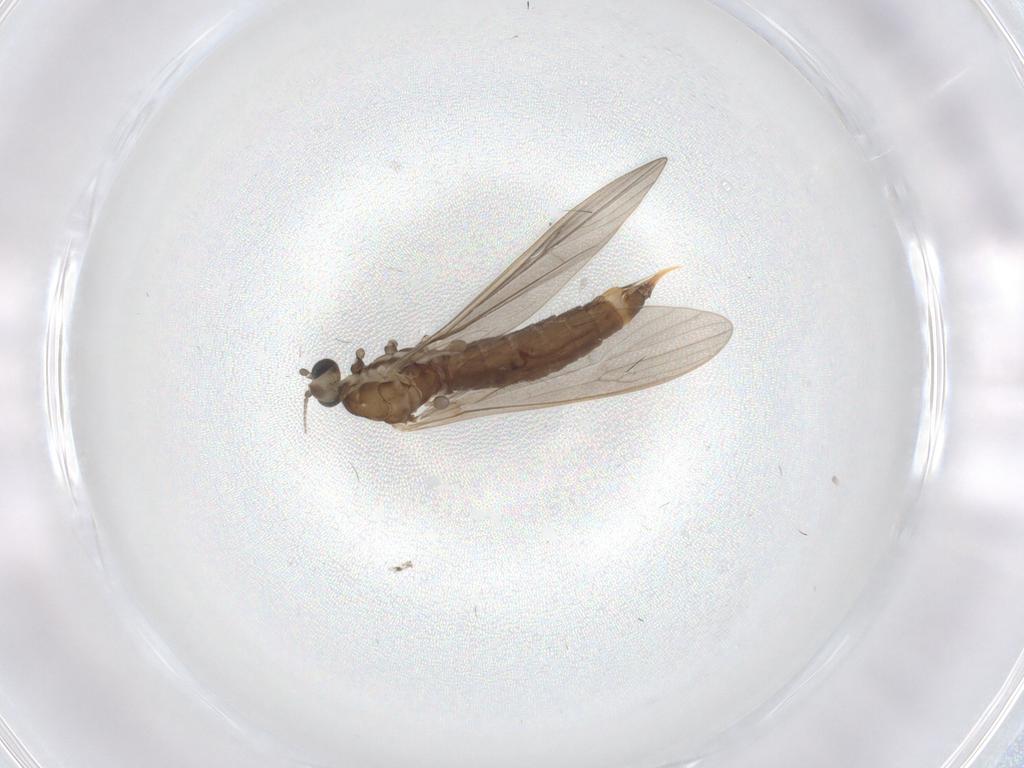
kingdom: Animalia
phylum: Arthropoda
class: Insecta
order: Diptera
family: Limoniidae
